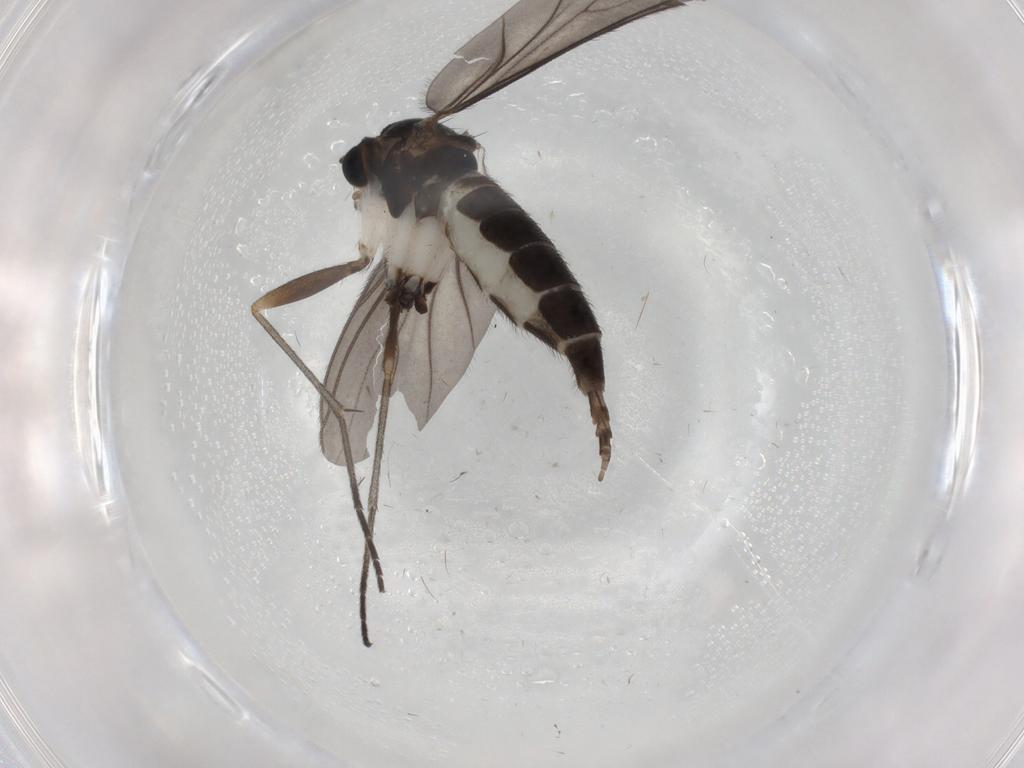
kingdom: Animalia
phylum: Arthropoda
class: Insecta
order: Diptera
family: Sciaridae
